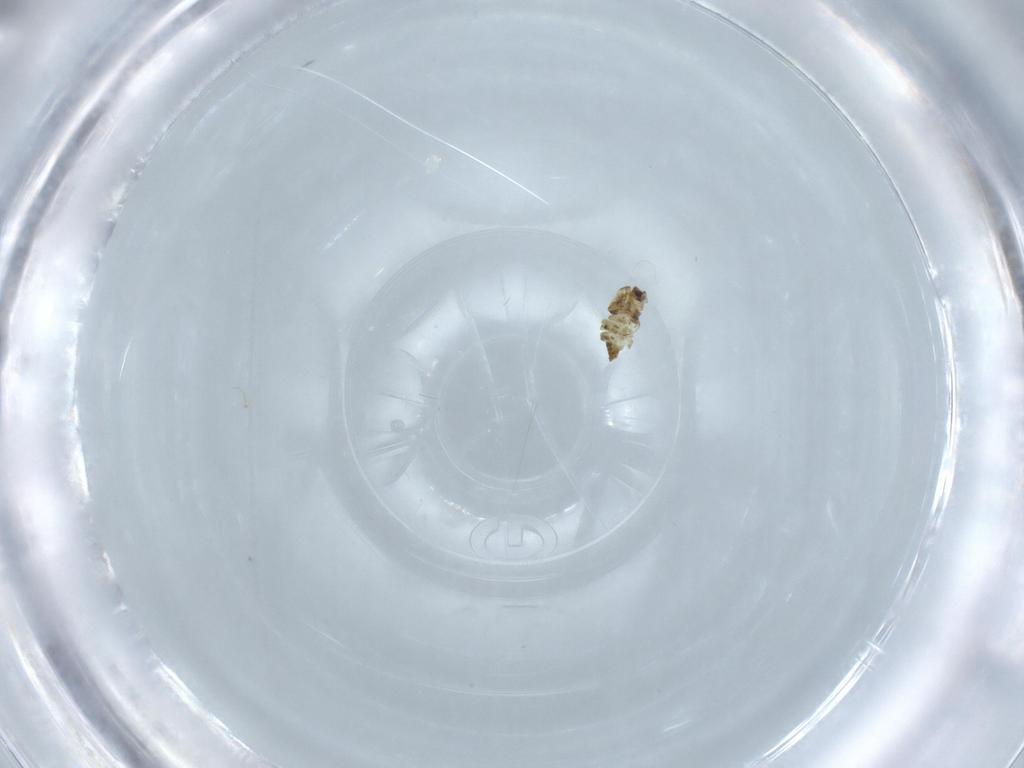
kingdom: Animalia
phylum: Arthropoda
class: Insecta
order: Diptera
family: Chironomidae
